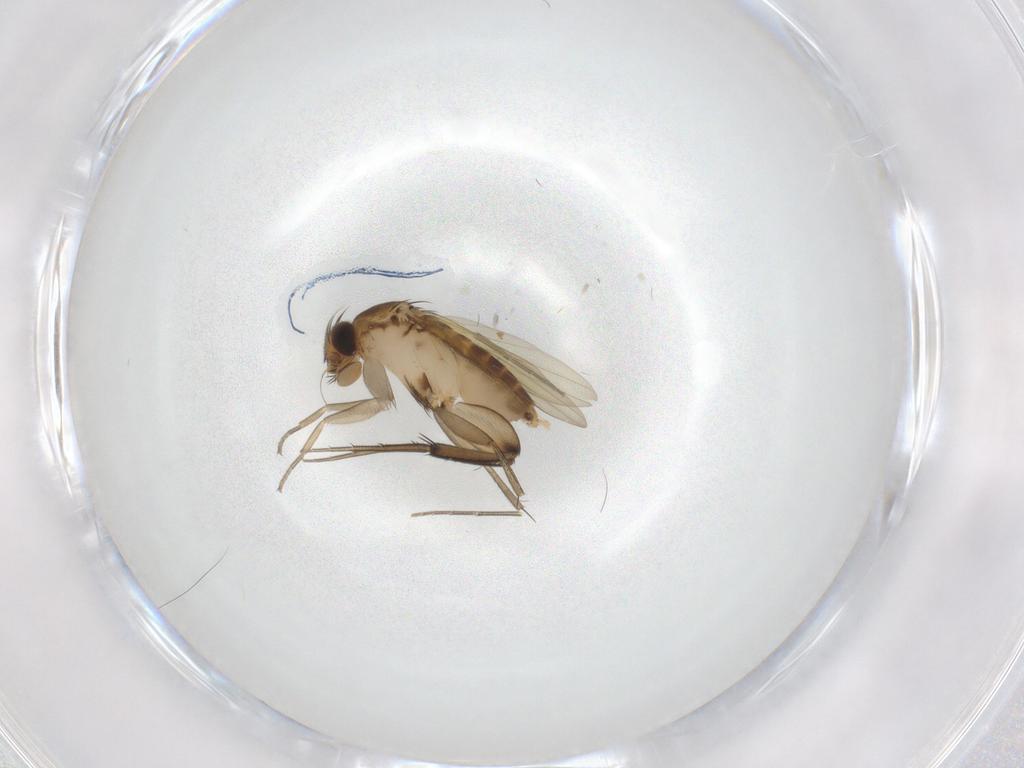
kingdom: Animalia
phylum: Arthropoda
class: Insecta
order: Diptera
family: Phoridae
